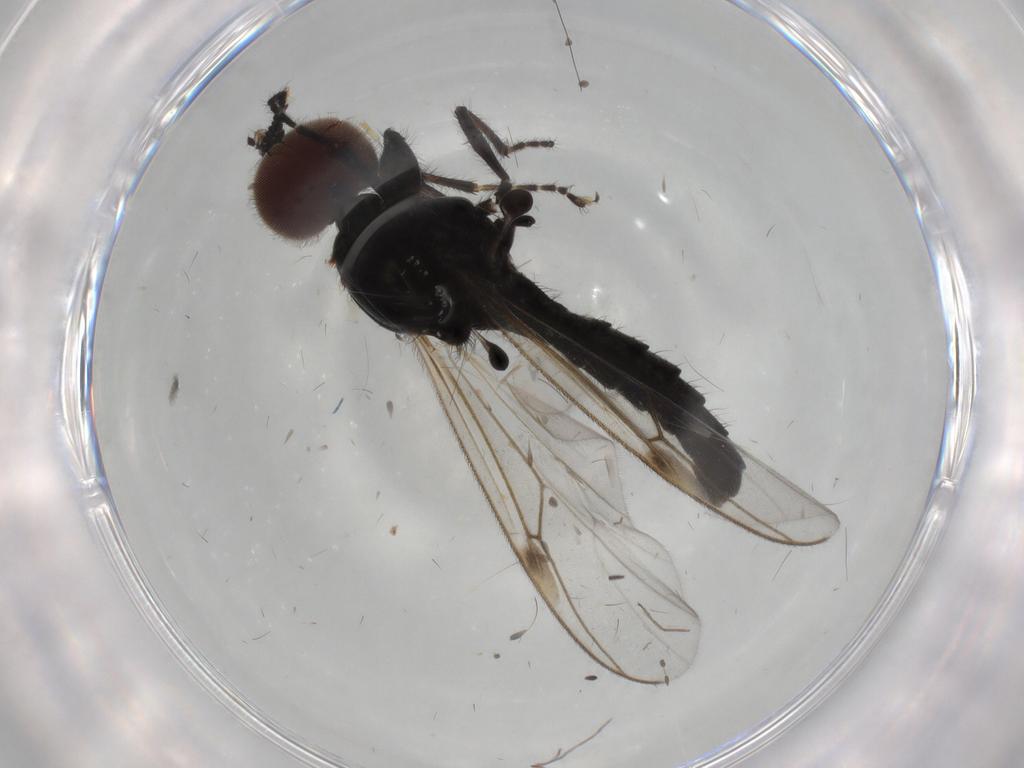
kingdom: Animalia
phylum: Arthropoda
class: Insecta
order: Diptera
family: Bibionidae
